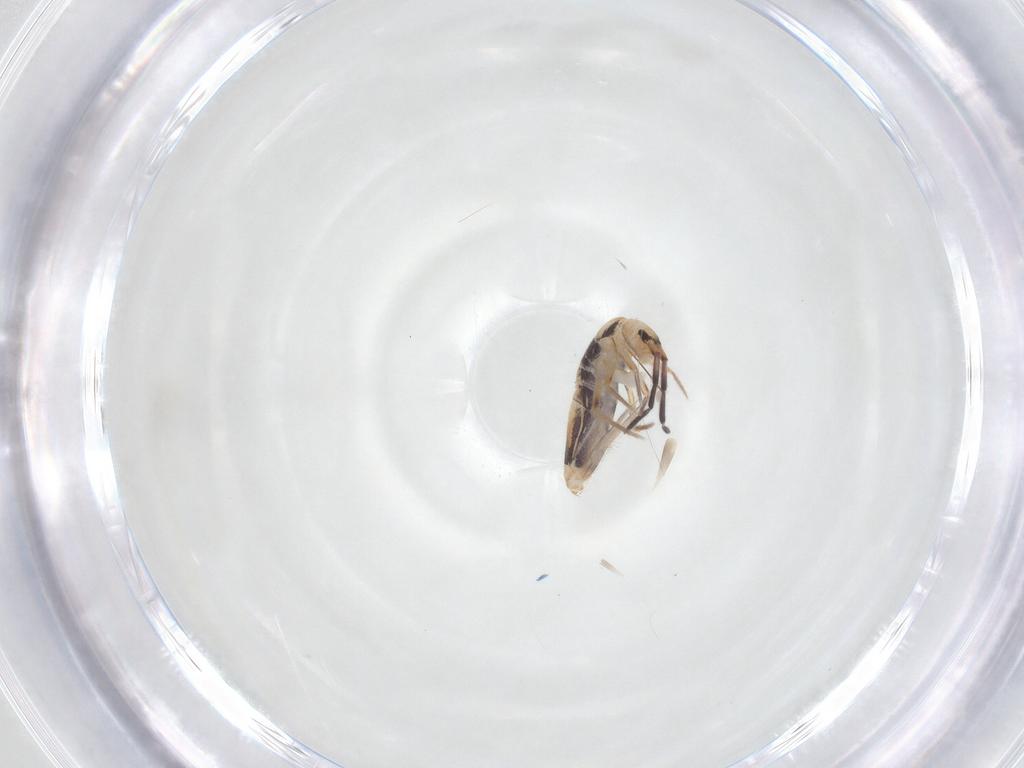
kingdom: Animalia
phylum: Arthropoda
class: Collembola
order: Entomobryomorpha
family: Entomobryidae
